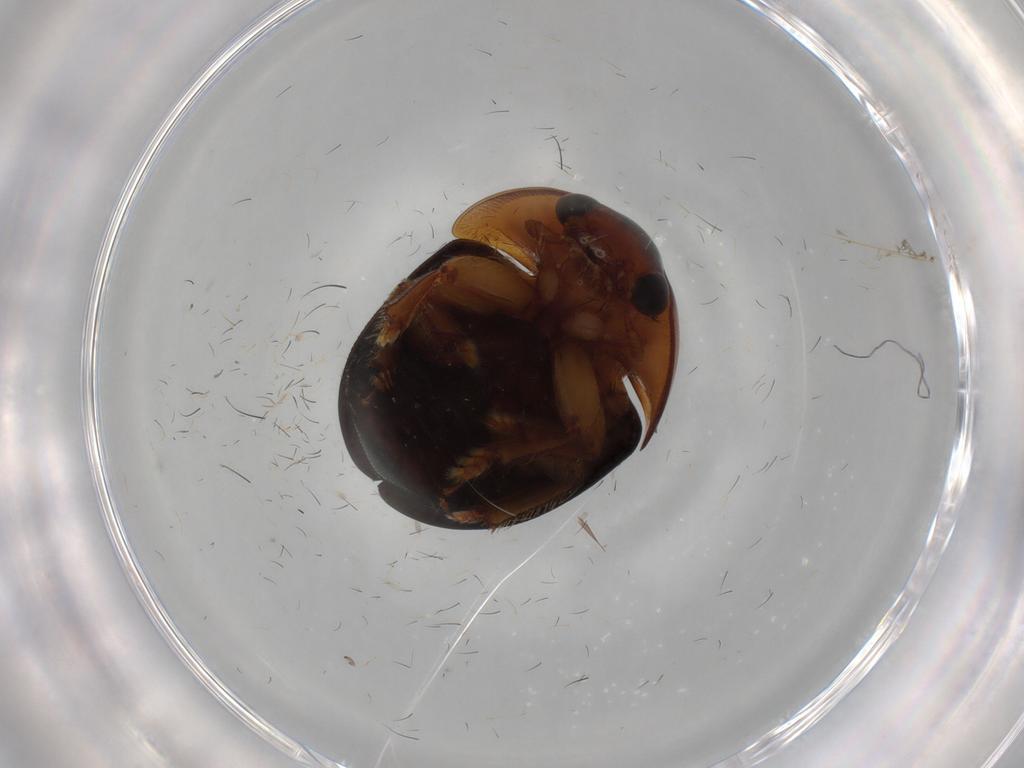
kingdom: Animalia
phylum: Arthropoda
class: Insecta
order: Coleoptera
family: Nitidulidae
